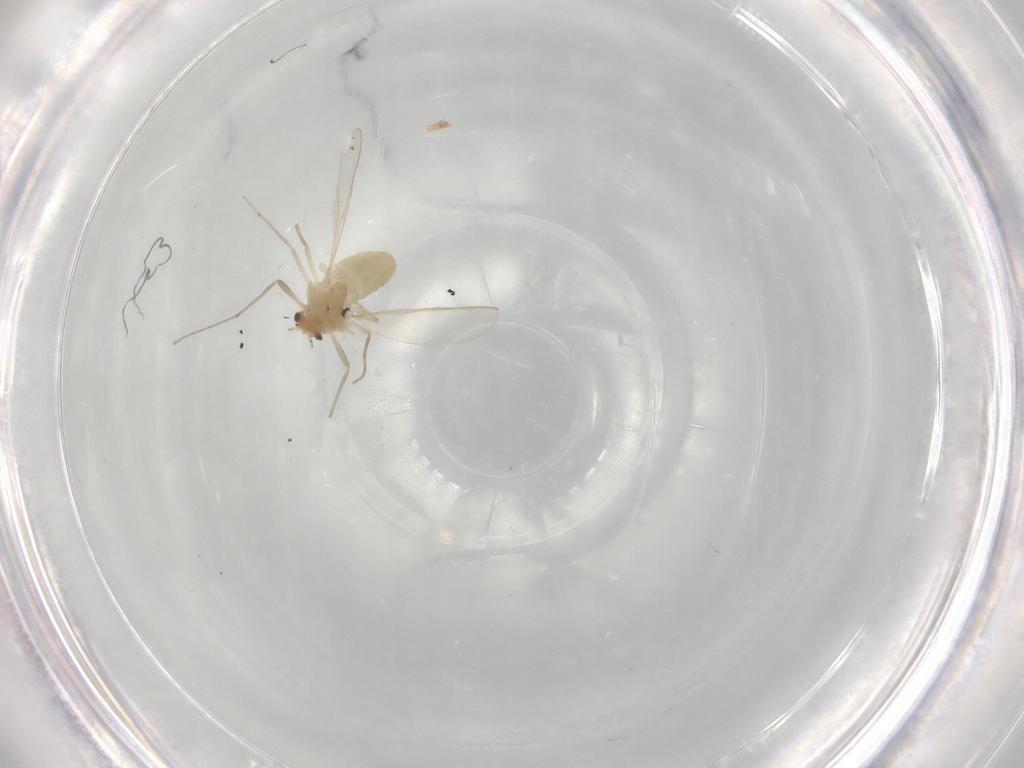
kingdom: Animalia
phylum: Arthropoda
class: Insecta
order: Diptera
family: Chironomidae
